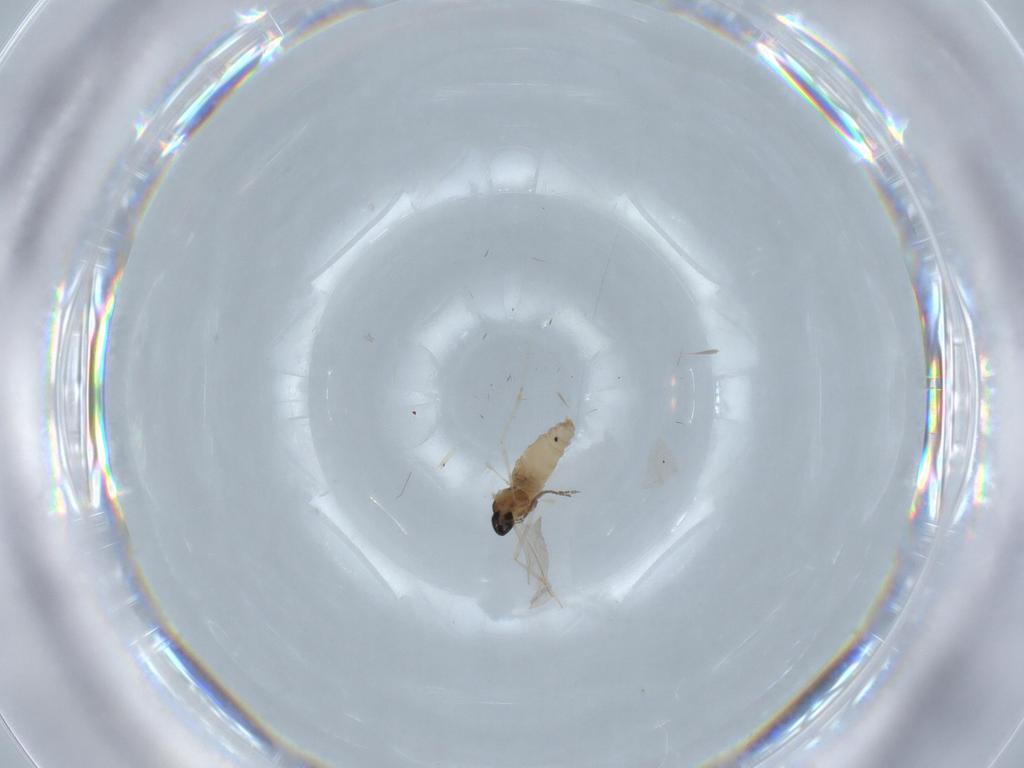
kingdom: Animalia
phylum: Arthropoda
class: Insecta
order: Diptera
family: Cecidomyiidae
